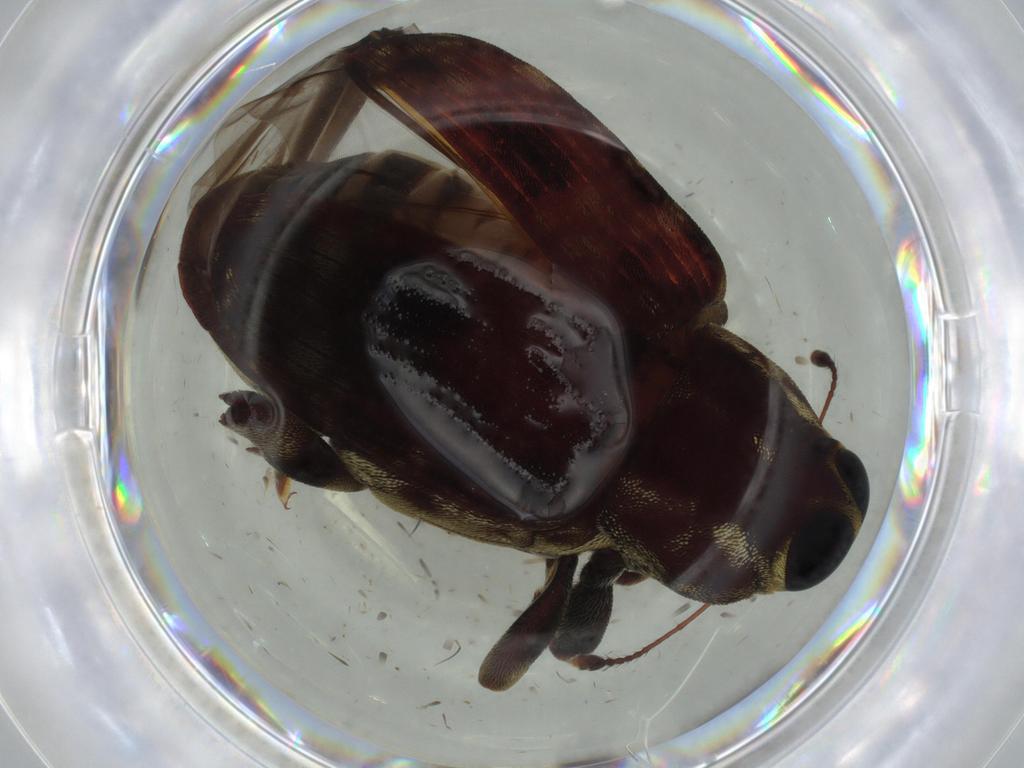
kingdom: Animalia
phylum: Arthropoda
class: Insecta
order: Coleoptera
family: Curculionidae
